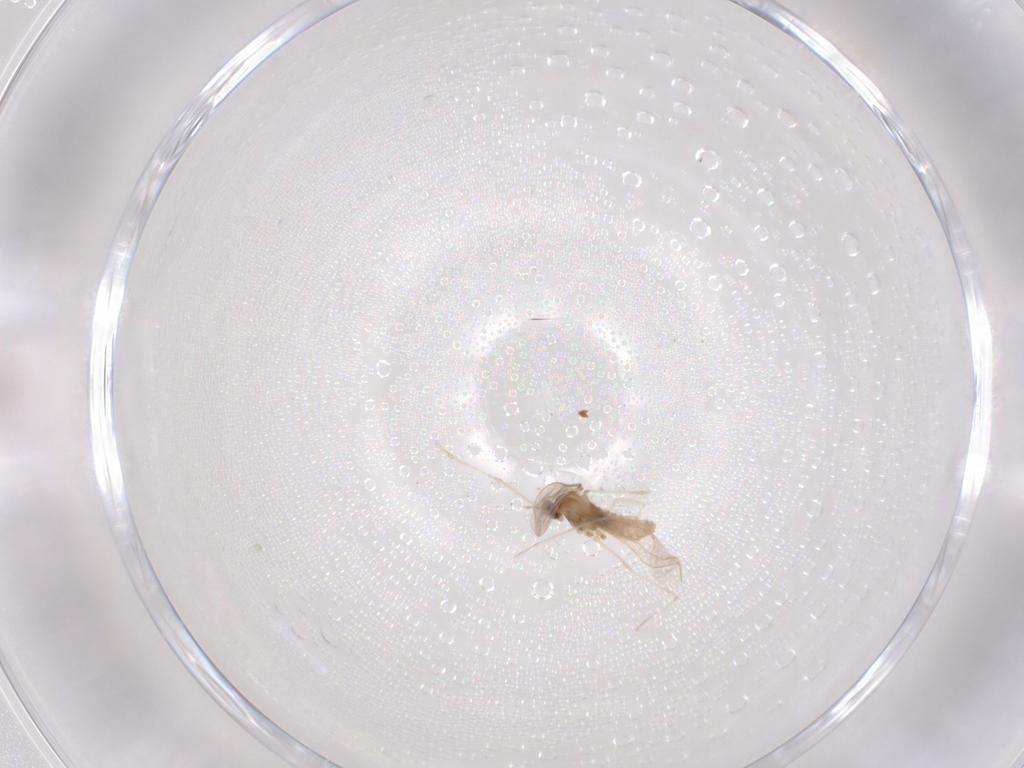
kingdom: Animalia
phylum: Arthropoda
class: Insecta
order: Diptera
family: Cecidomyiidae
